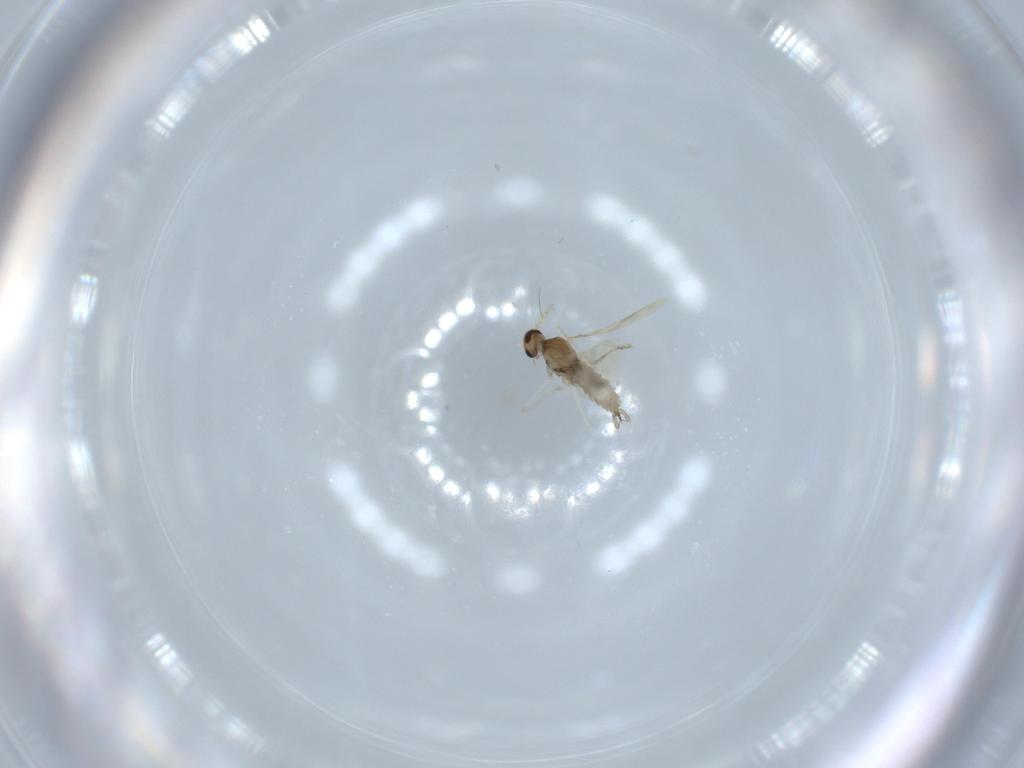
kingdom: Animalia
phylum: Arthropoda
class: Insecta
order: Diptera
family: Cecidomyiidae
